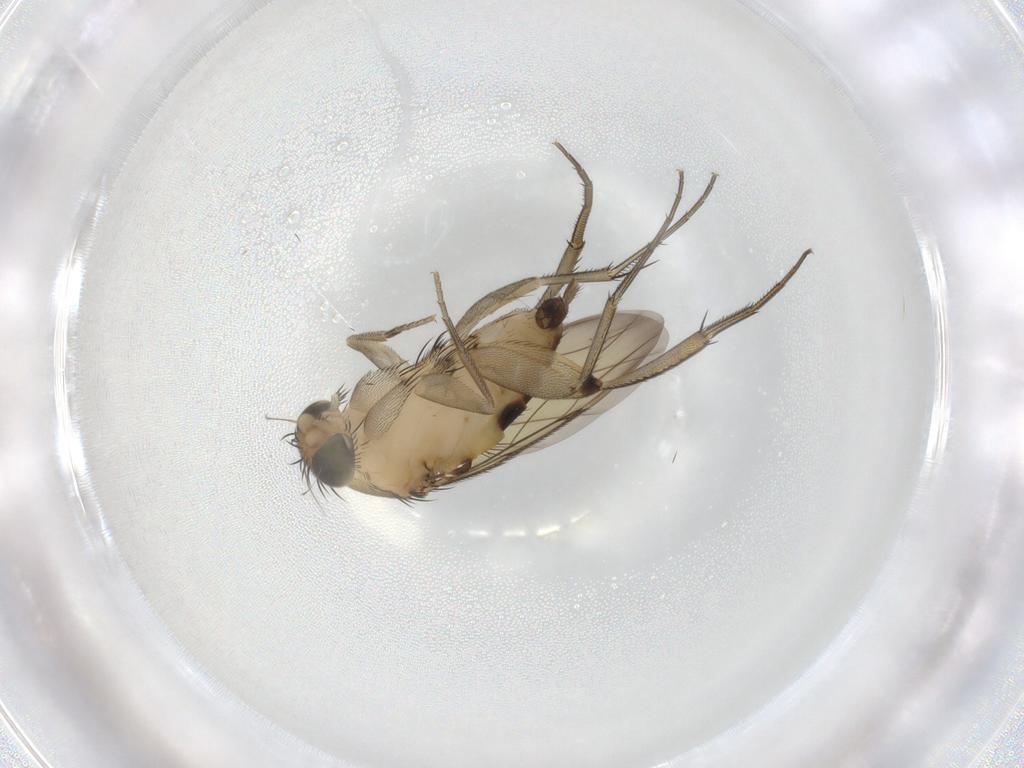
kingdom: Animalia
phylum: Arthropoda
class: Insecta
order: Diptera
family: Phoridae
